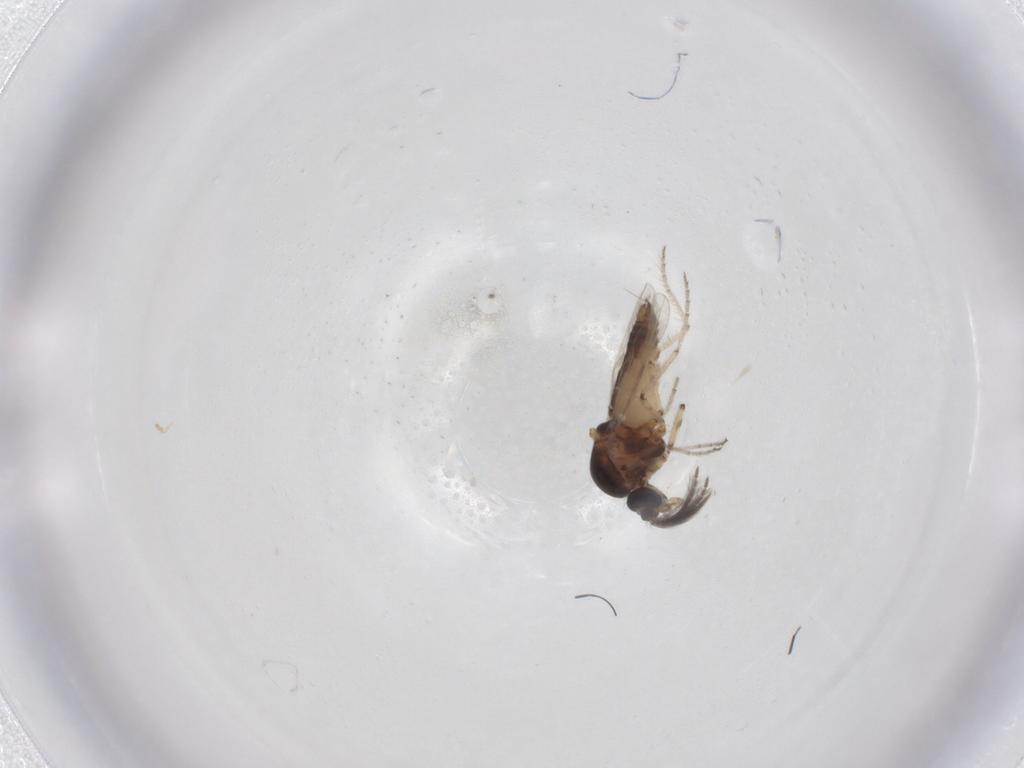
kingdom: Animalia
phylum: Arthropoda
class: Insecta
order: Diptera
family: Ceratopogonidae
